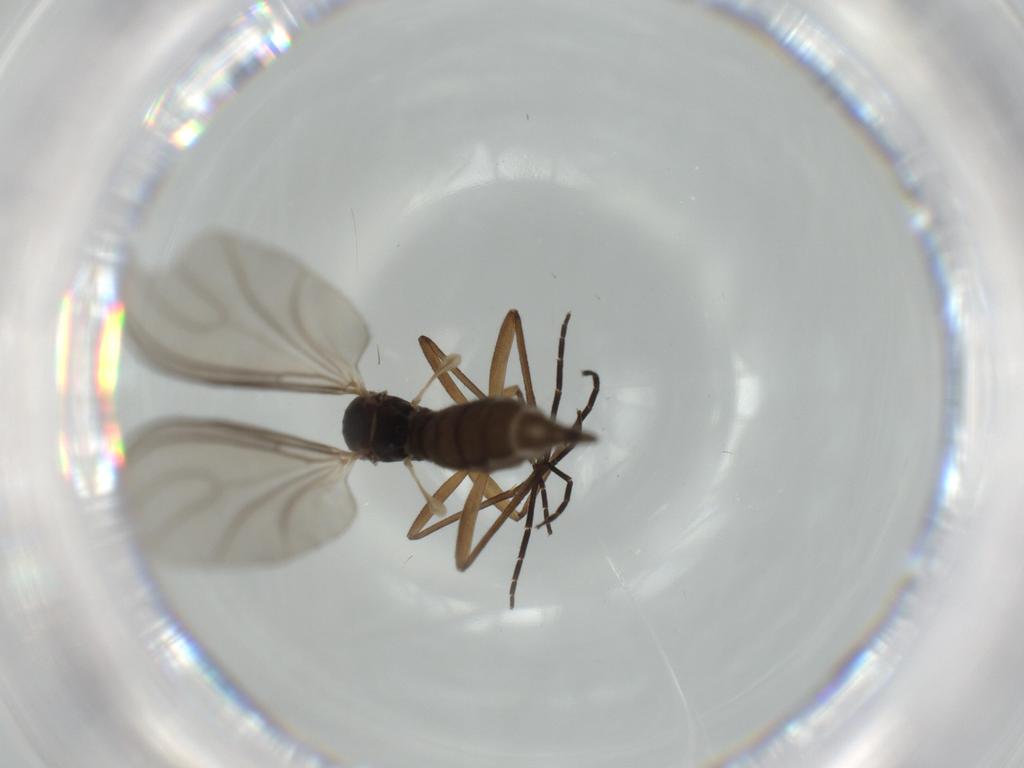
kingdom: Animalia
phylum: Arthropoda
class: Insecta
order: Diptera
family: Sciaridae
